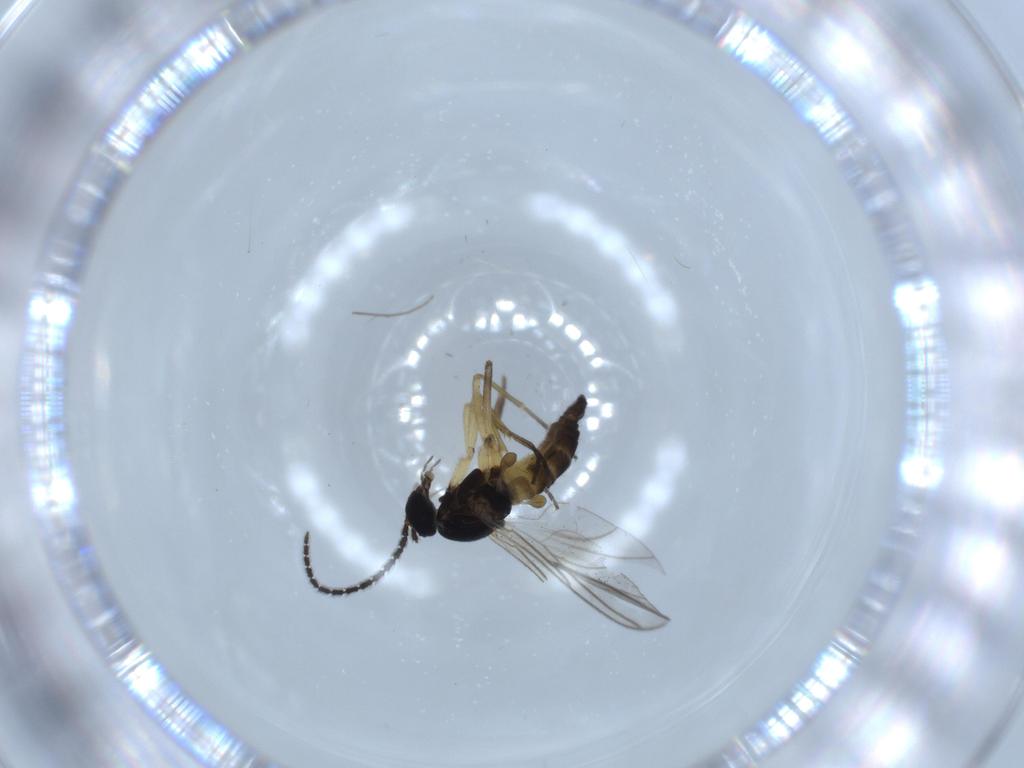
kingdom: Animalia
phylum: Arthropoda
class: Insecta
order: Diptera
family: Sciaridae
